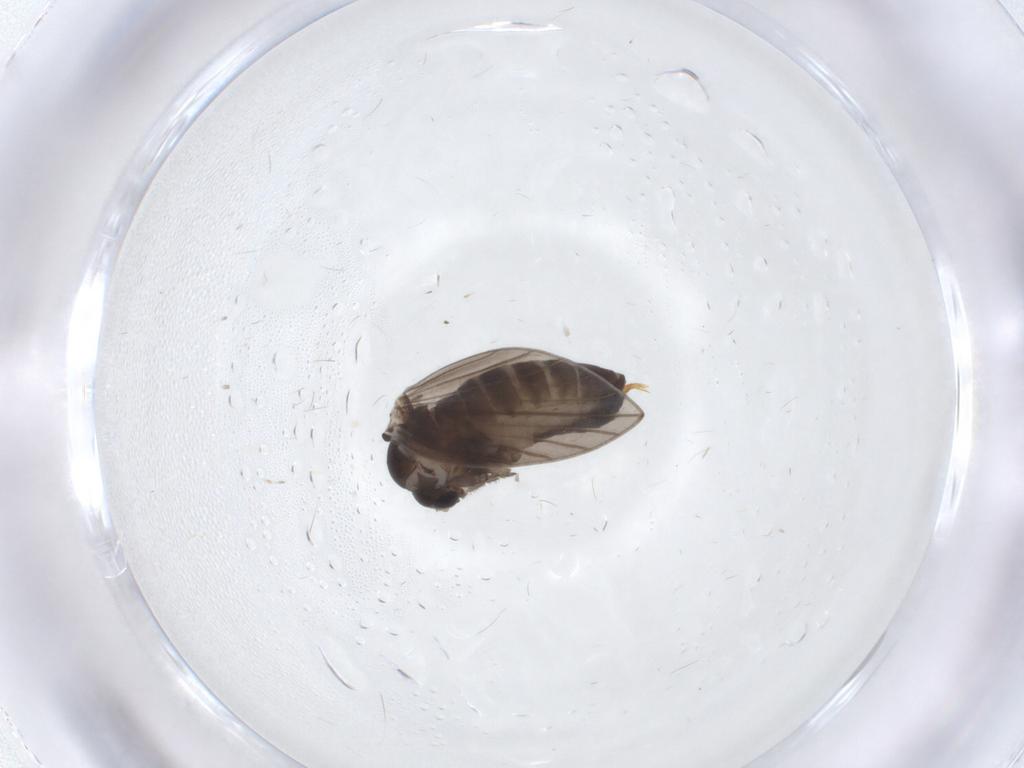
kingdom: Animalia
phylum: Arthropoda
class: Insecta
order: Diptera
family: Psychodidae
